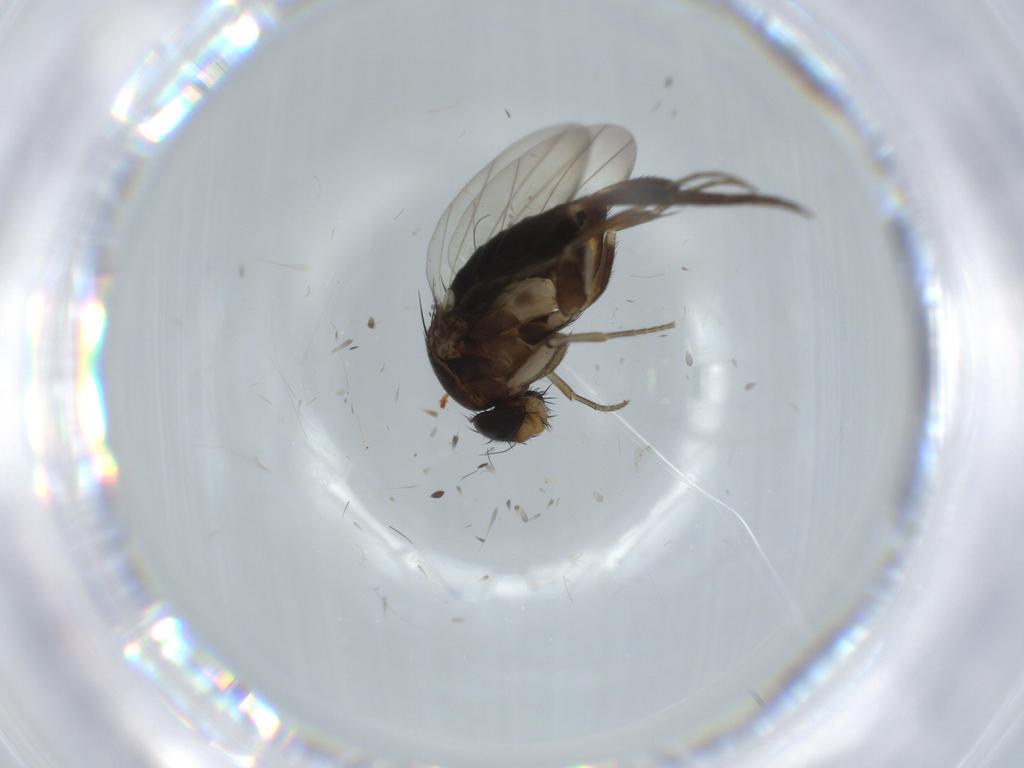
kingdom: Animalia
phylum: Arthropoda
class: Insecta
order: Diptera
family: Phoridae
